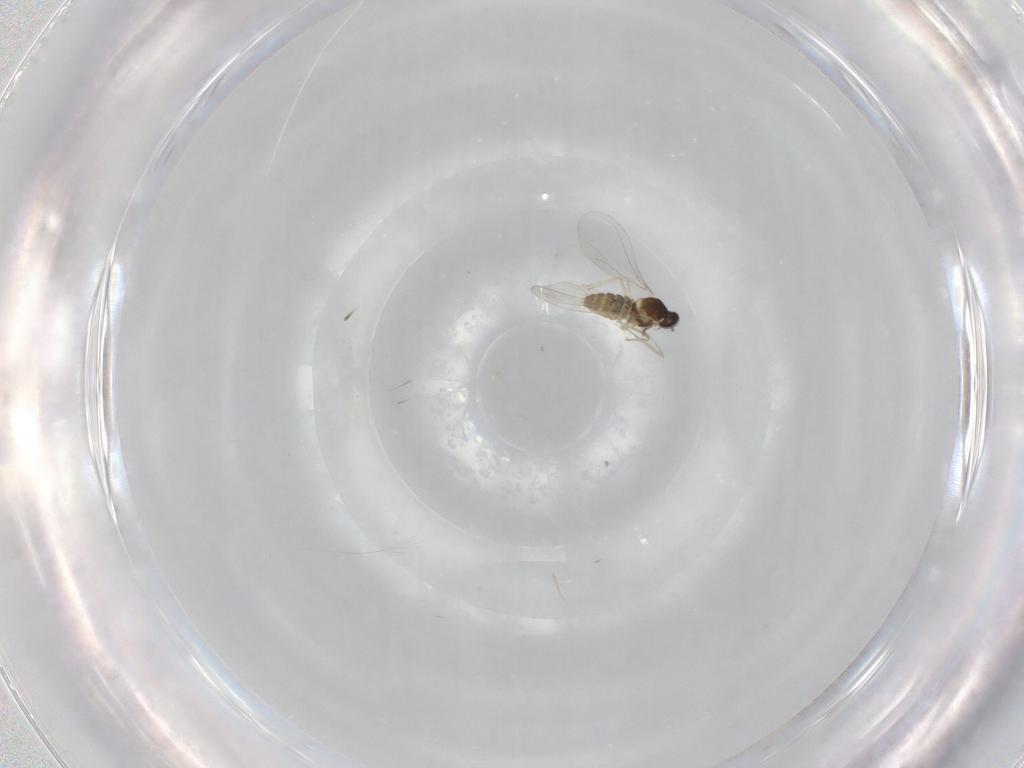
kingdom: Animalia
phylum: Arthropoda
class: Insecta
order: Diptera
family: Cecidomyiidae
